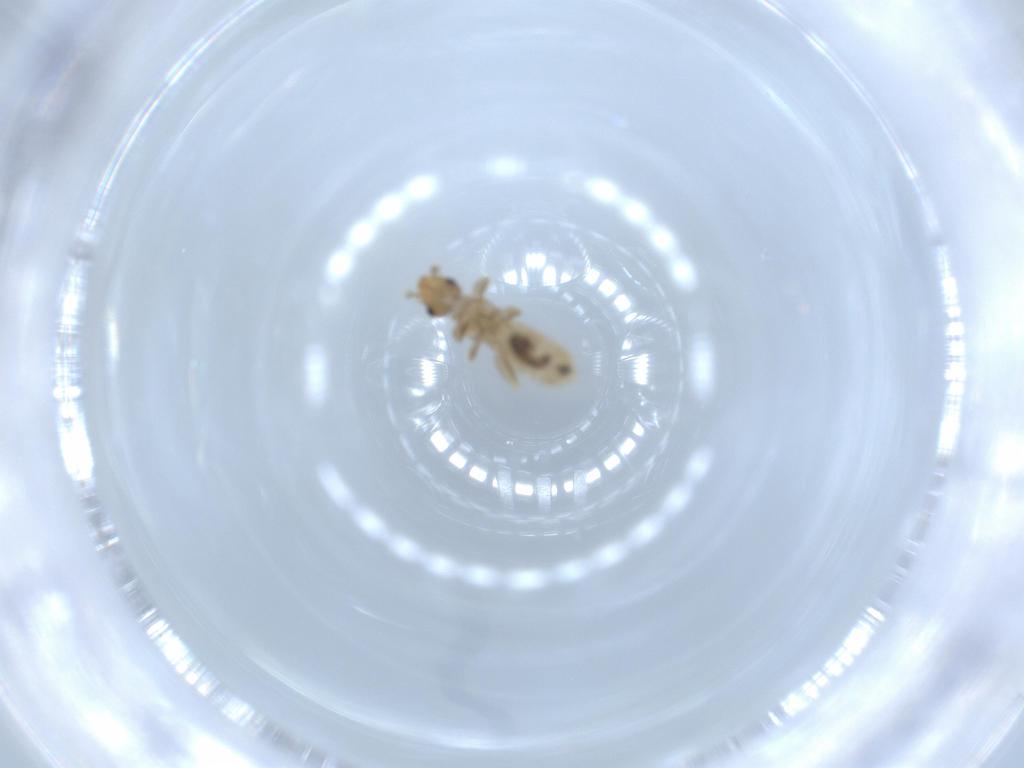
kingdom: Animalia
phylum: Arthropoda
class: Insecta
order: Psocodea
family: Liposcelididae
